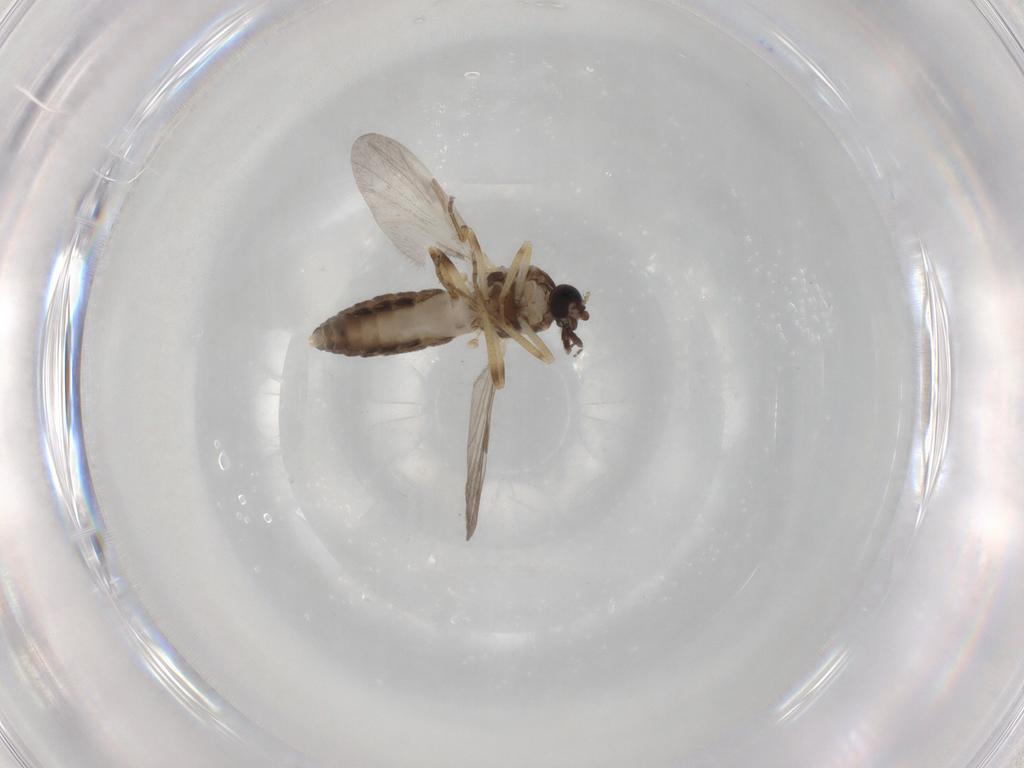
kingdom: Animalia
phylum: Arthropoda
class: Insecta
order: Diptera
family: Ceratopogonidae
